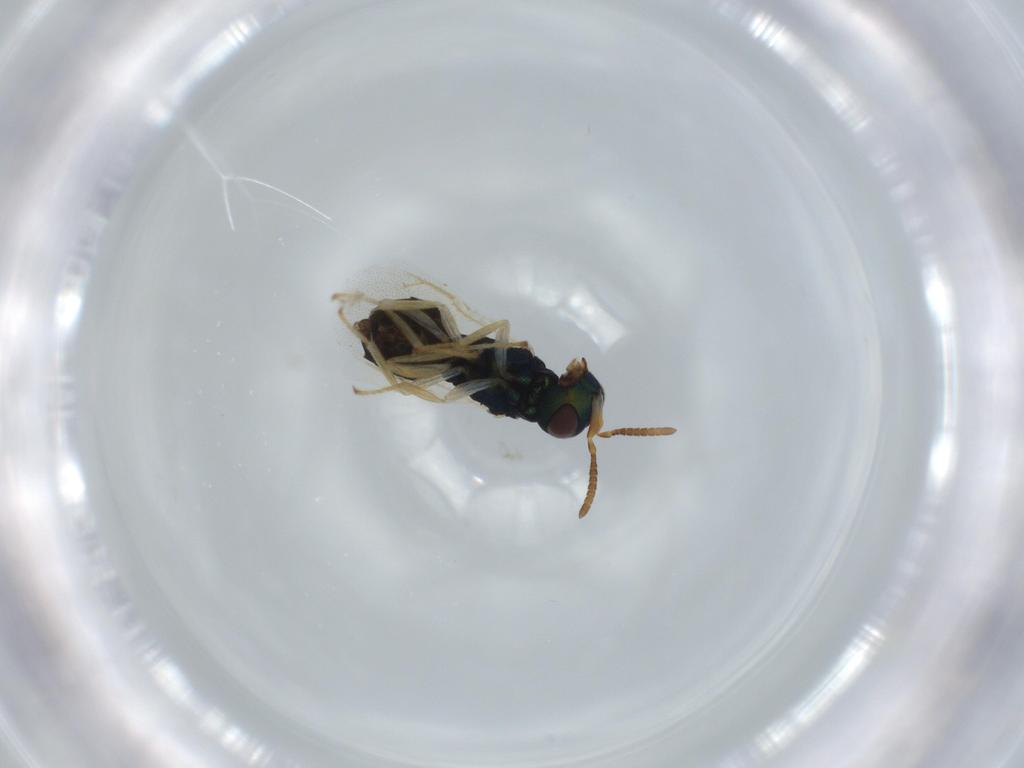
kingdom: Animalia
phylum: Arthropoda
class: Insecta
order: Hymenoptera
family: Pteromalidae
